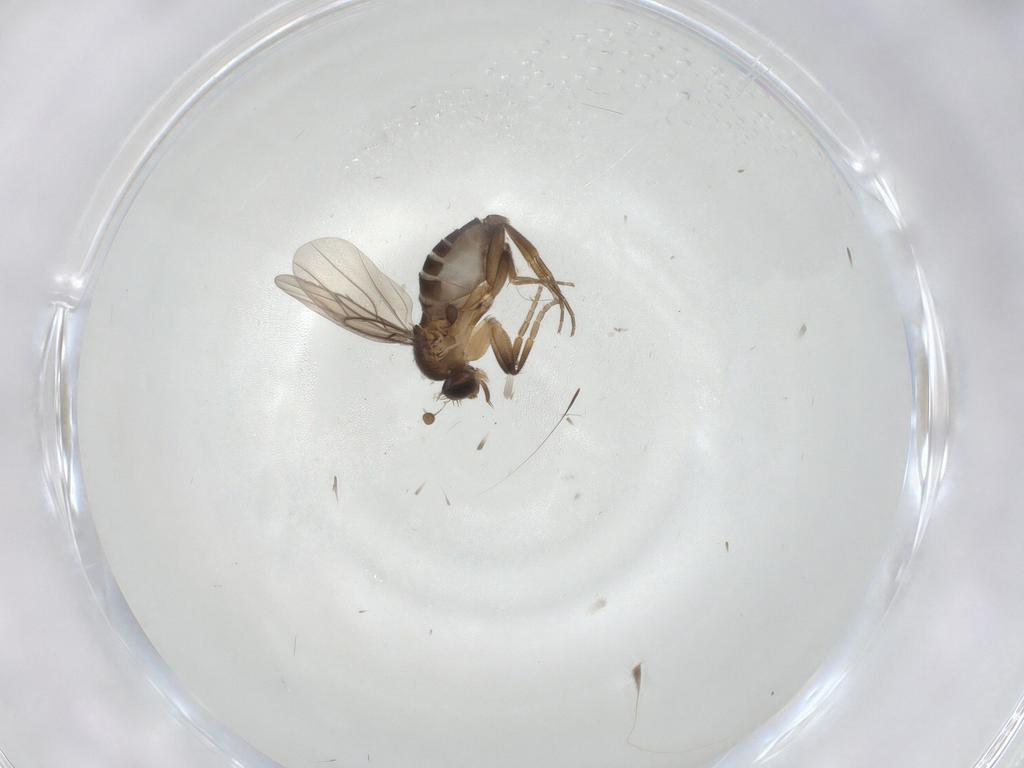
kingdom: Animalia
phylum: Arthropoda
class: Insecta
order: Diptera
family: Phoridae
